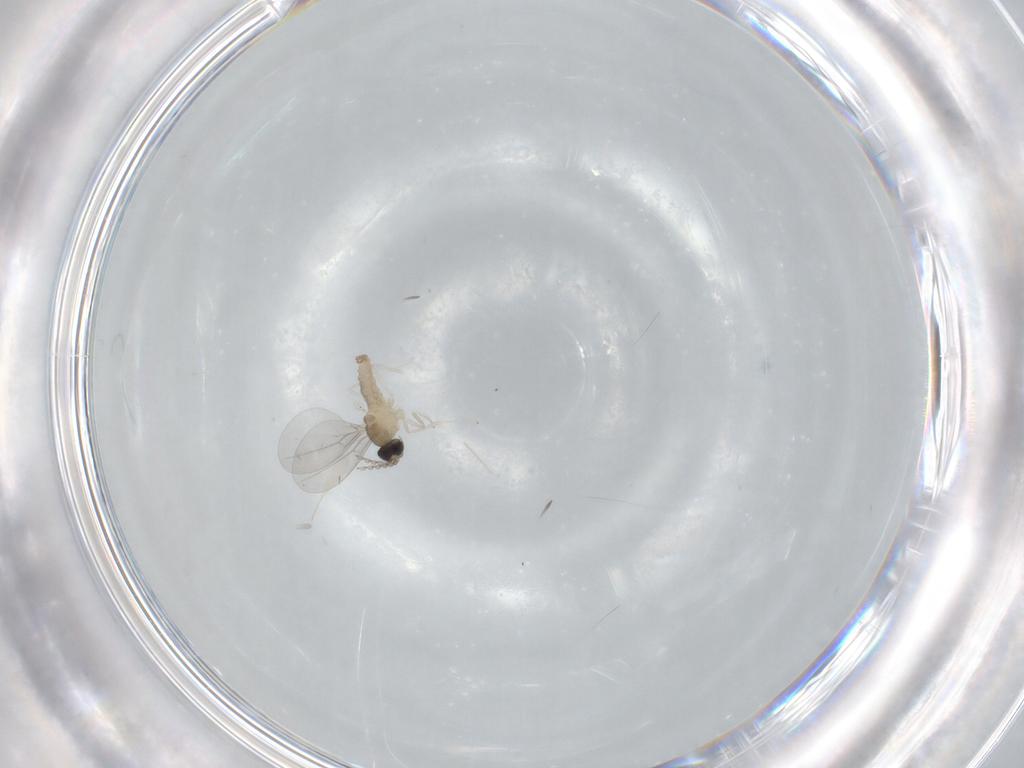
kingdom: Animalia
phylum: Arthropoda
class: Insecta
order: Diptera
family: Cecidomyiidae
